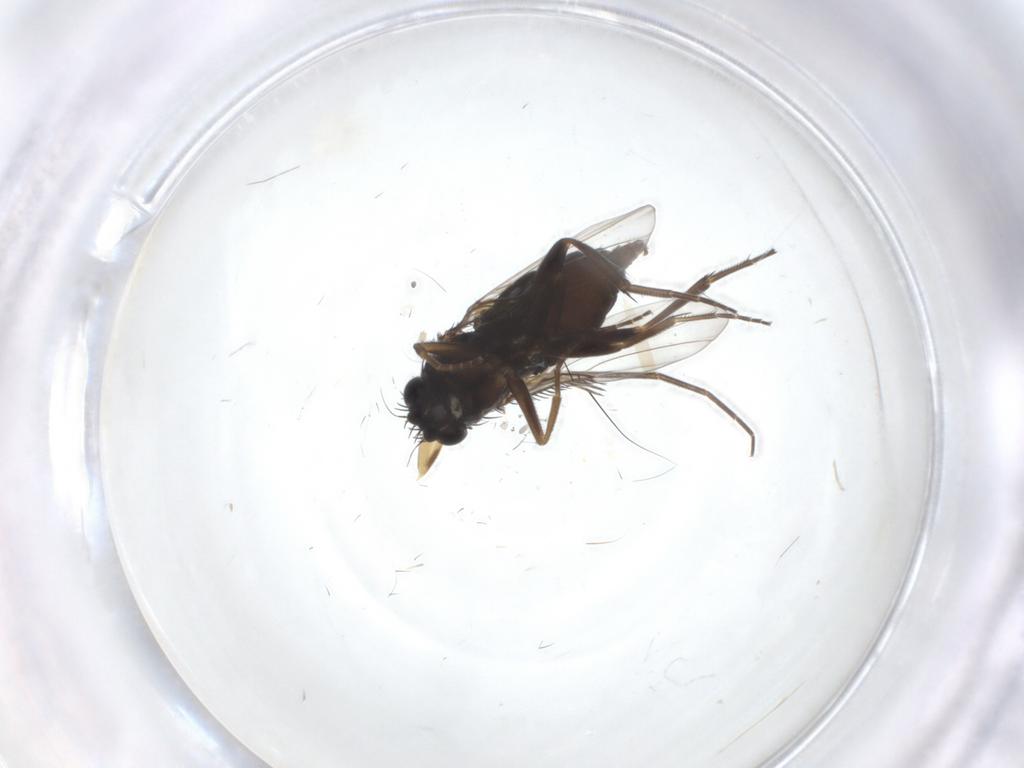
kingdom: Animalia
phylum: Arthropoda
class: Insecta
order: Diptera
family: Phoridae
